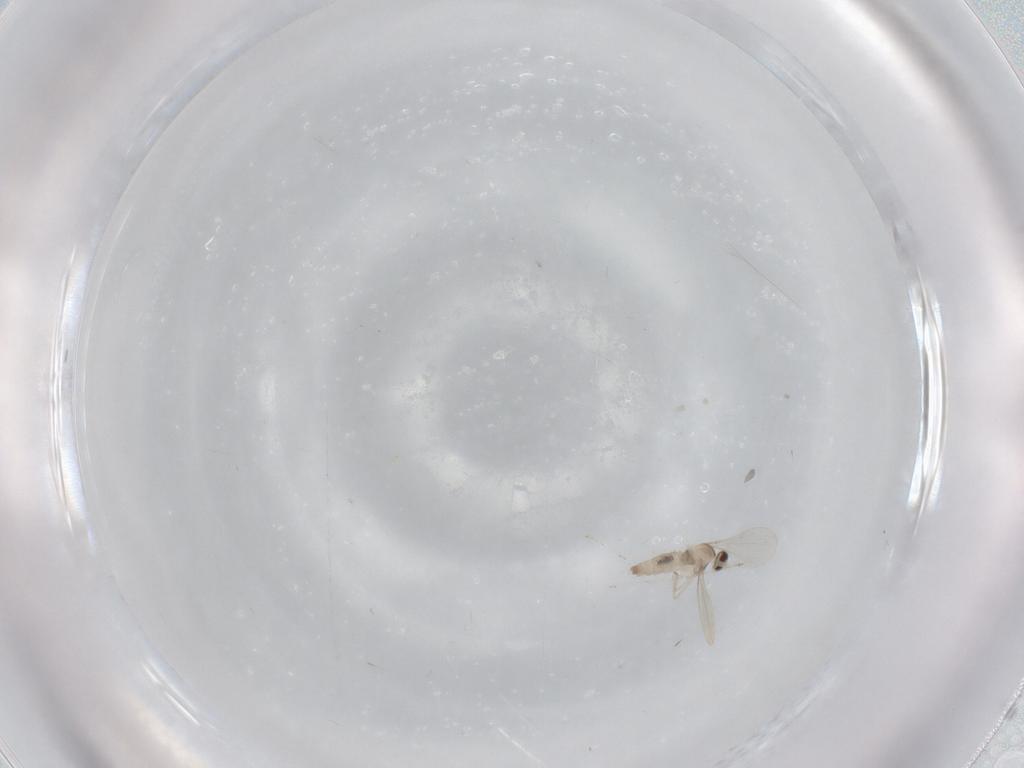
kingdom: Animalia
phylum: Arthropoda
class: Insecta
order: Diptera
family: Cecidomyiidae
